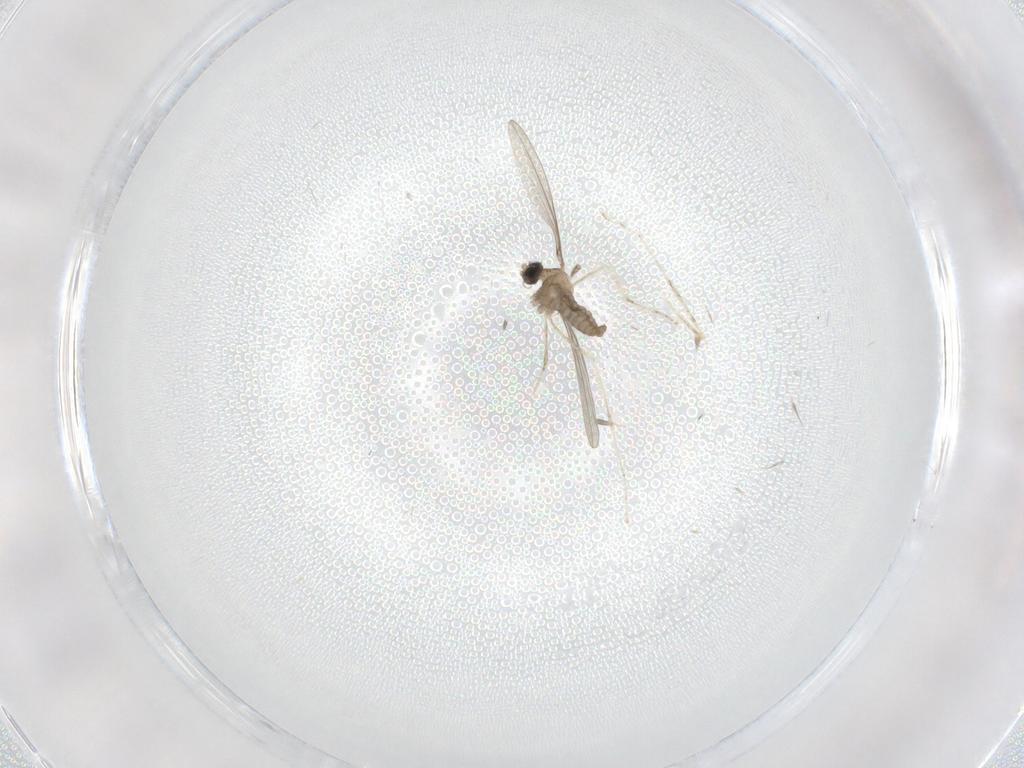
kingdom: Animalia
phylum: Arthropoda
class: Insecta
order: Diptera
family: Cecidomyiidae
